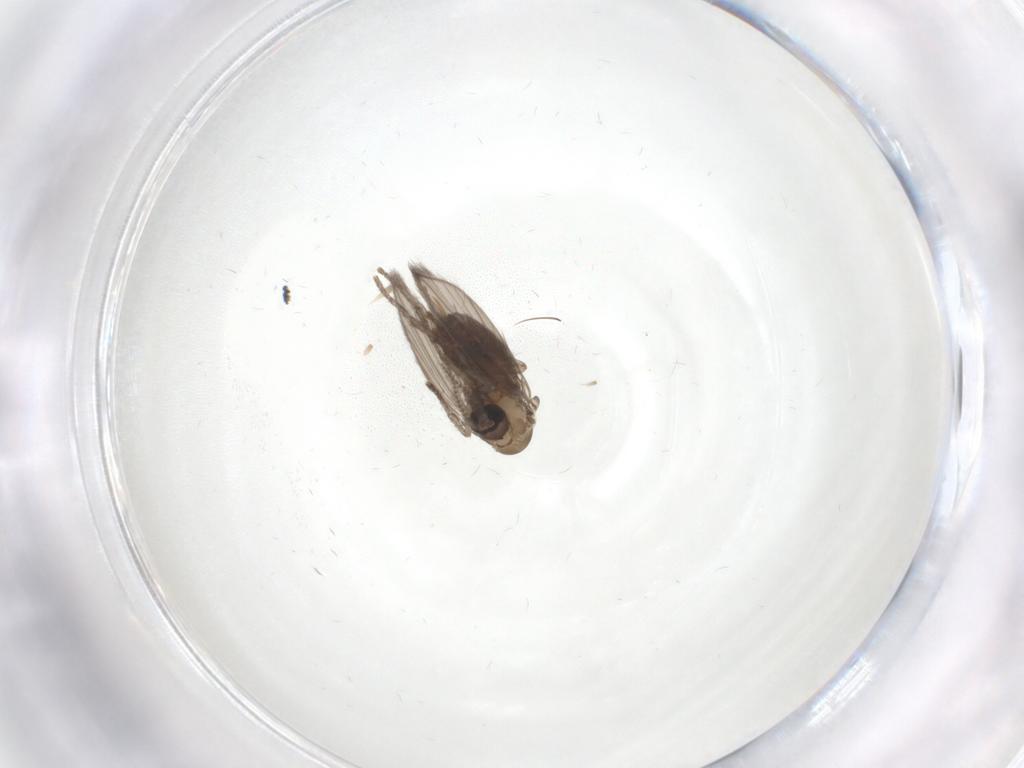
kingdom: Animalia
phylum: Arthropoda
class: Insecta
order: Diptera
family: Psychodidae
